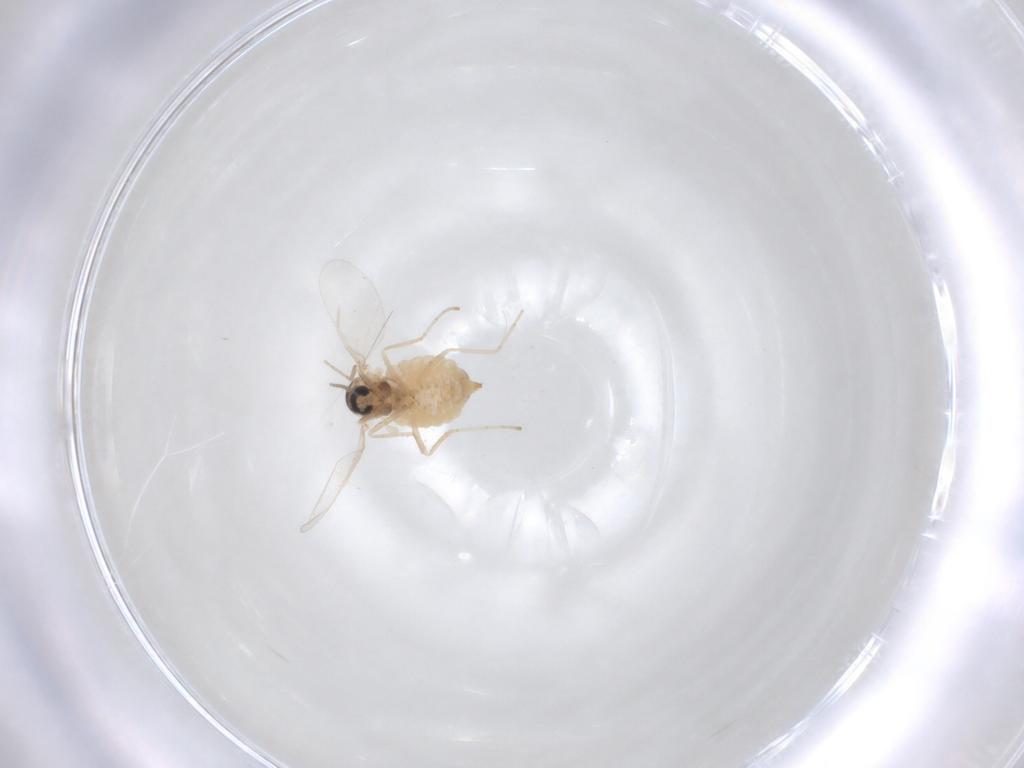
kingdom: Animalia
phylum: Arthropoda
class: Insecta
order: Diptera
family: Cecidomyiidae
